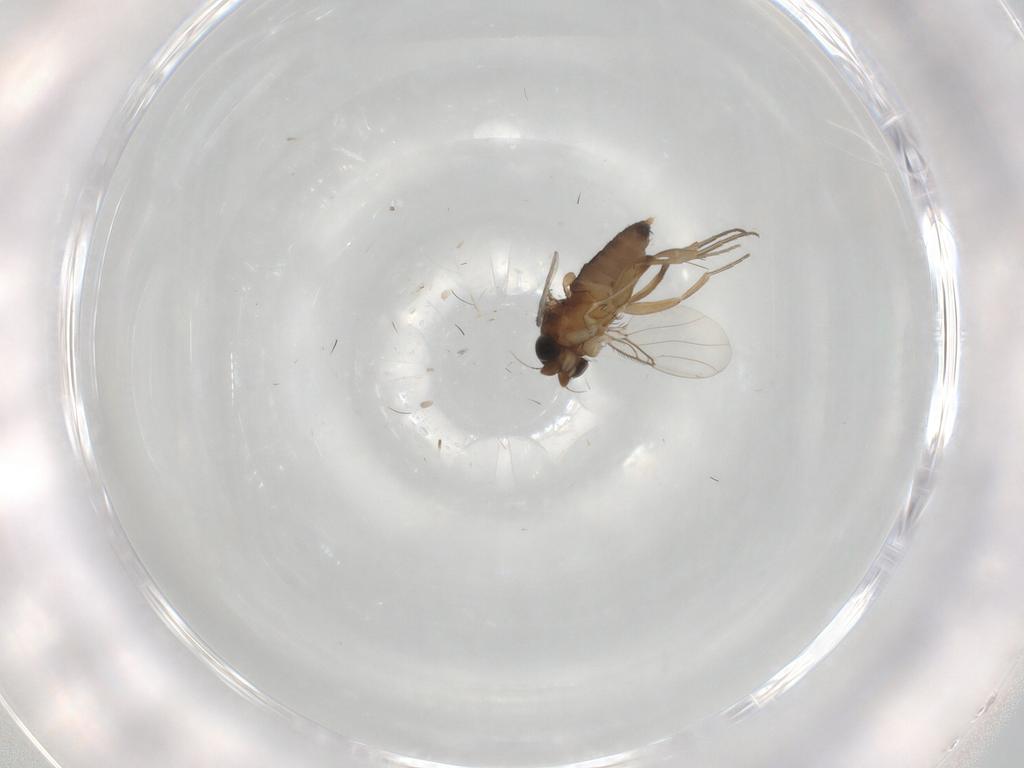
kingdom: Animalia
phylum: Arthropoda
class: Insecta
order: Diptera
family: Phoridae
